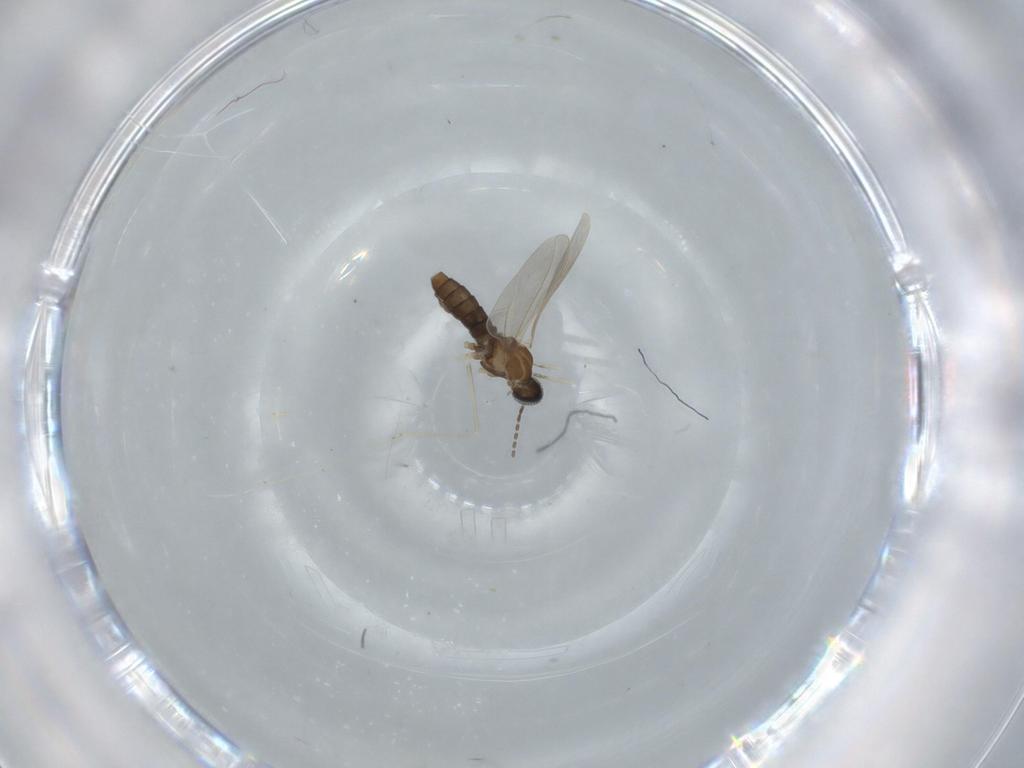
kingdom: Animalia
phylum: Arthropoda
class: Insecta
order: Diptera
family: Cecidomyiidae
